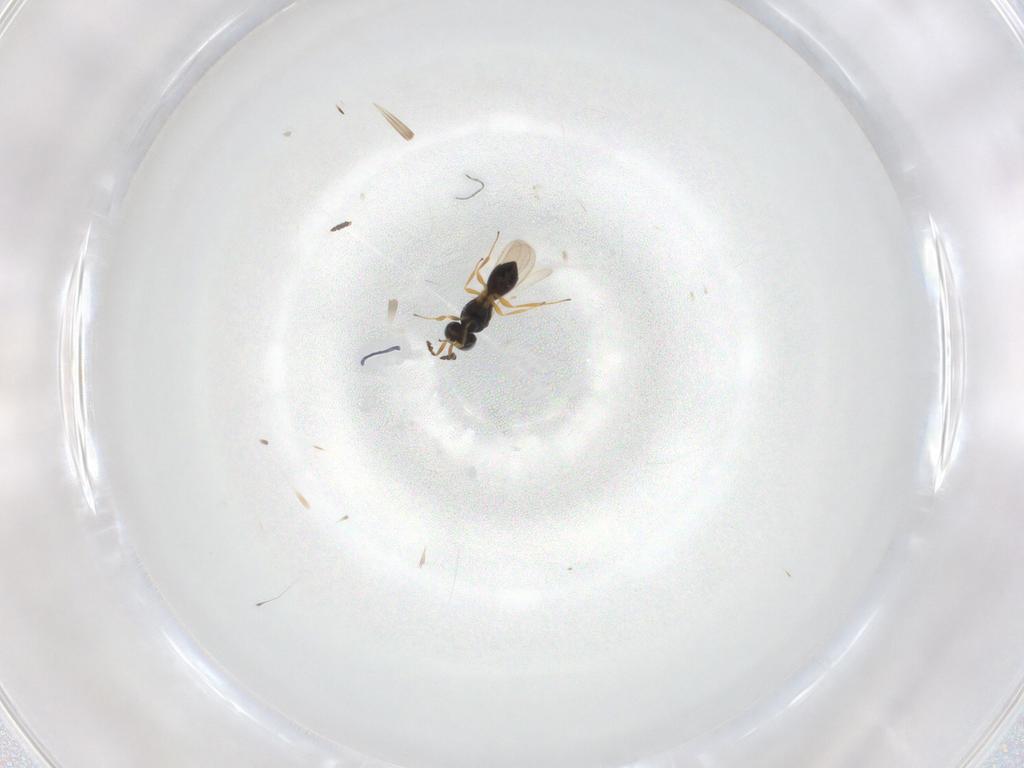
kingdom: Animalia
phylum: Arthropoda
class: Insecta
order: Hymenoptera
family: Scelionidae
